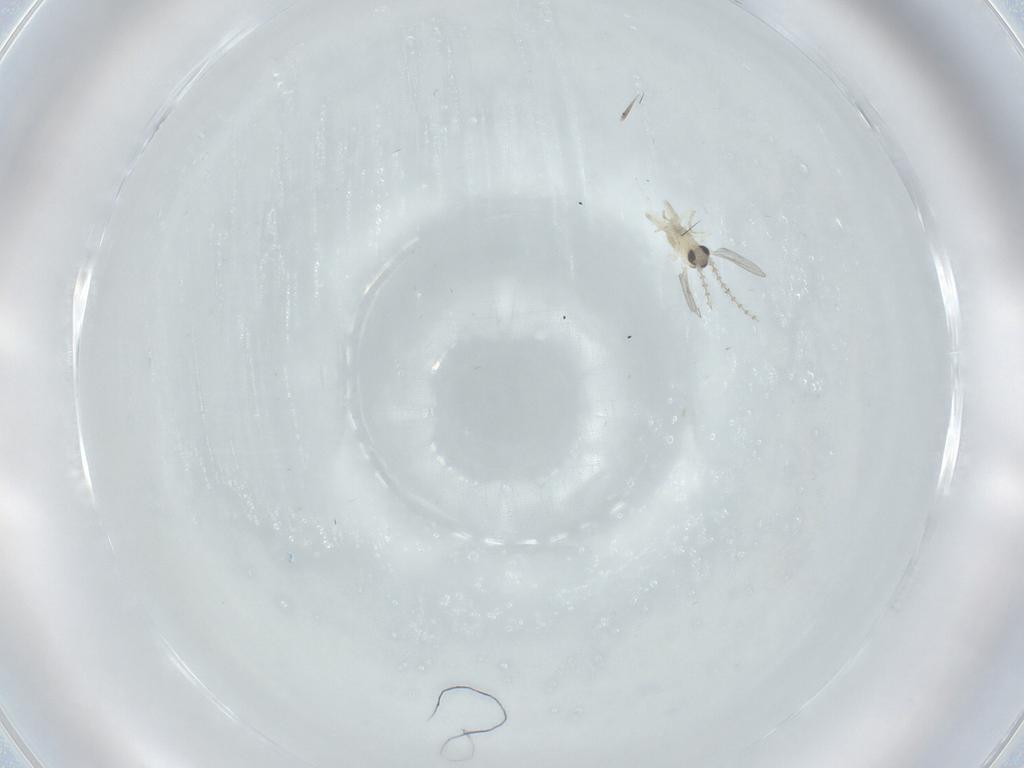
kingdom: Animalia
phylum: Arthropoda
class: Insecta
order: Diptera
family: Cecidomyiidae
